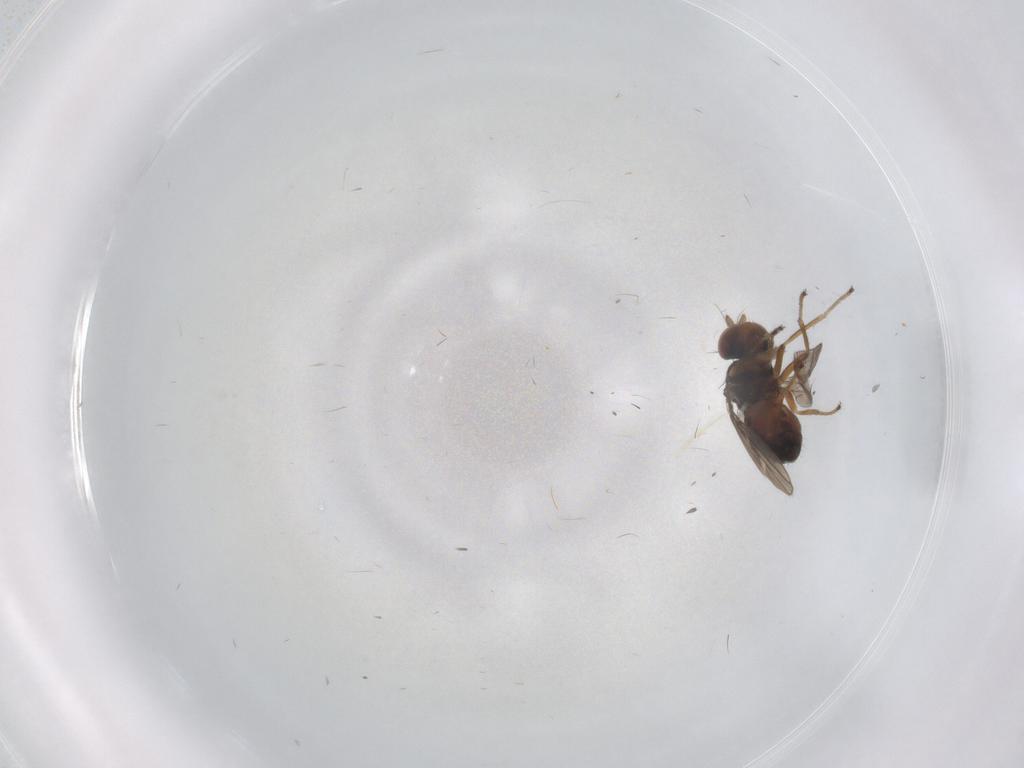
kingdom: Animalia
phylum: Arthropoda
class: Insecta
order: Diptera
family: Ephydridae
